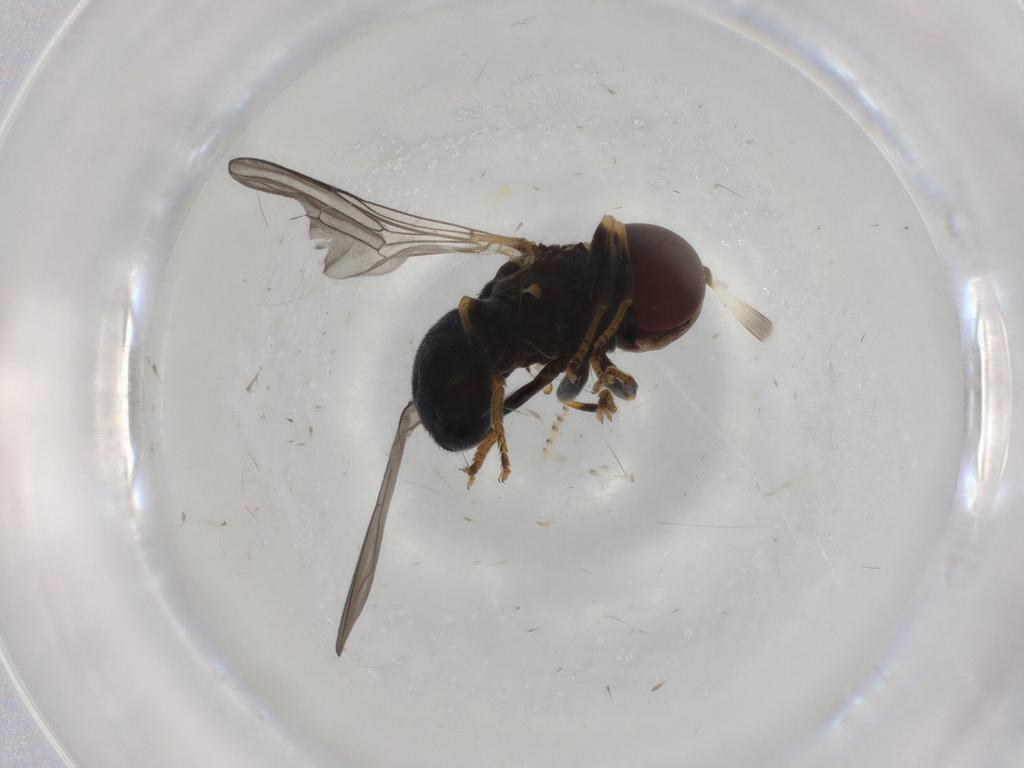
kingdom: Animalia
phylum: Arthropoda
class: Insecta
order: Diptera
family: Pipunculidae
